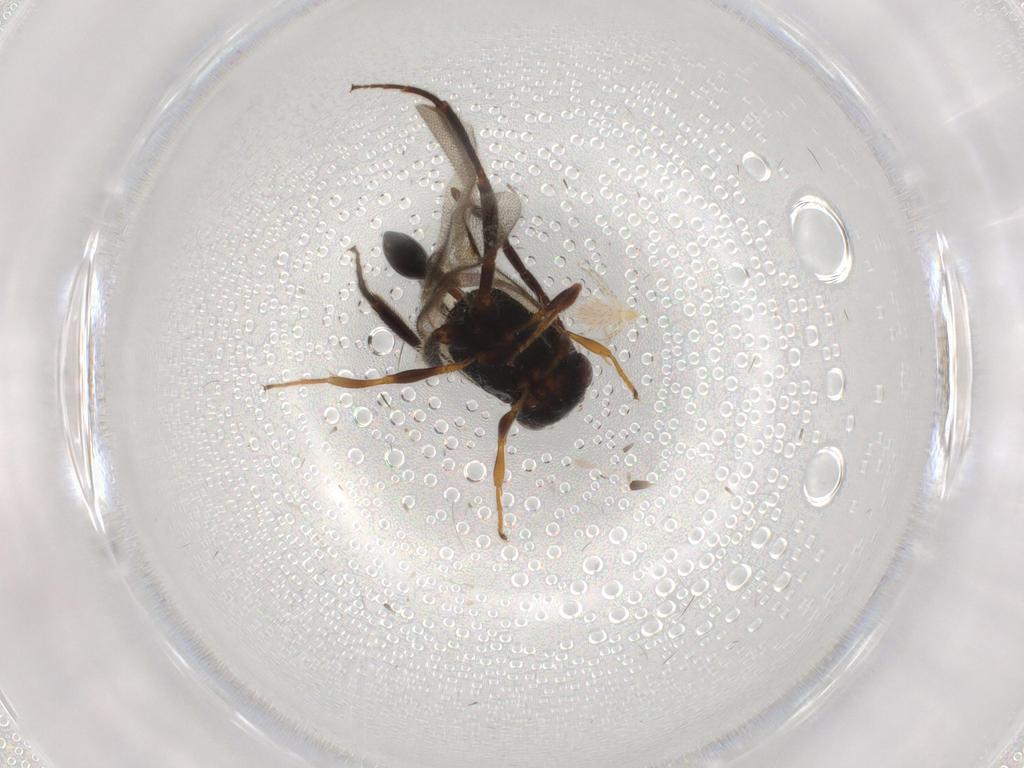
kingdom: Animalia
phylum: Arthropoda
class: Insecta
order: Hymenoptera
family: Evaniidae
